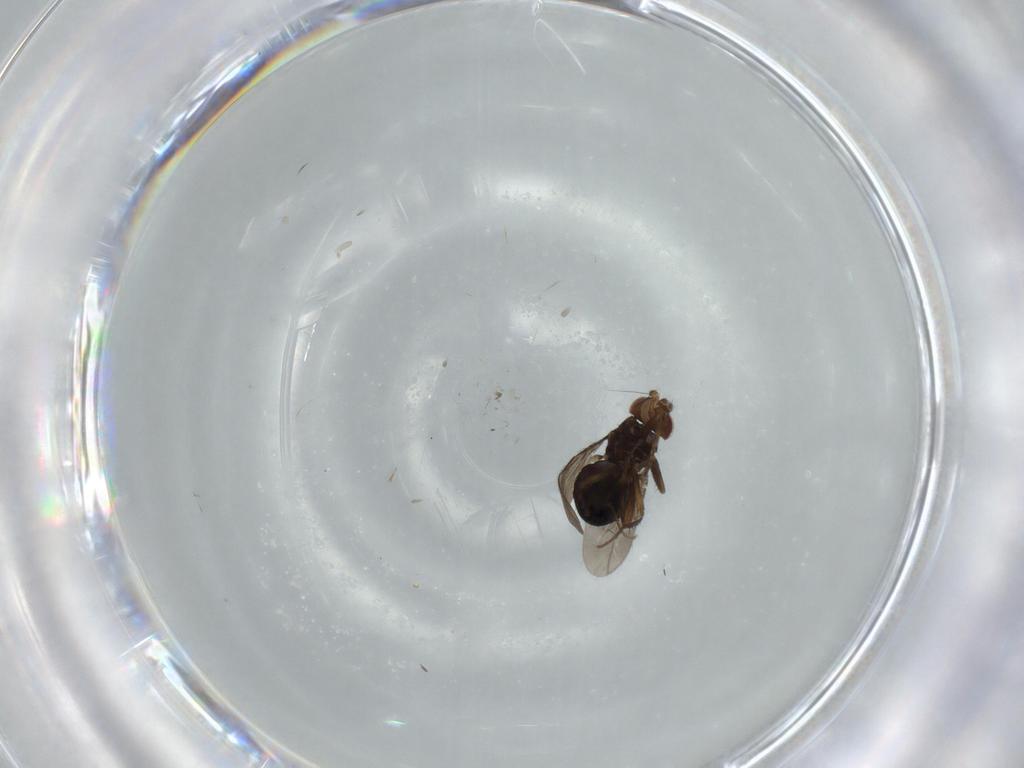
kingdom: Animalia
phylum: Arthropoda
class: Insecta
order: Diptera
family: Sphaeroceridae
